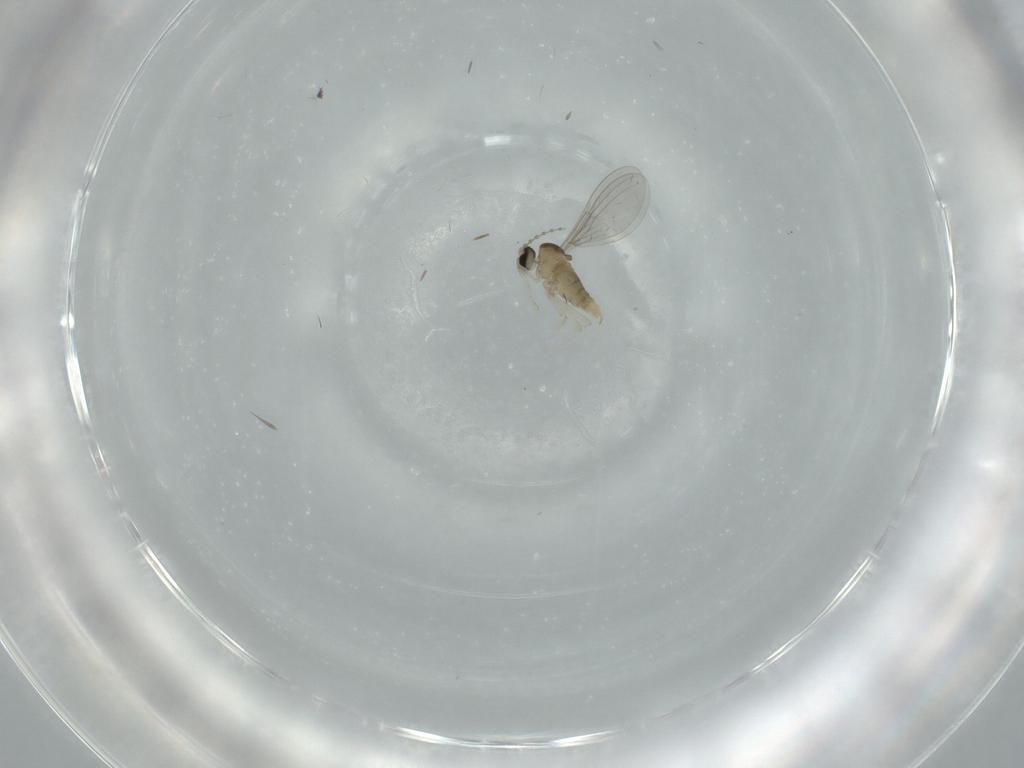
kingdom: Animalia
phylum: Arthropoda
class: Insecta
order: Diptera
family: Cecidomyiidae
